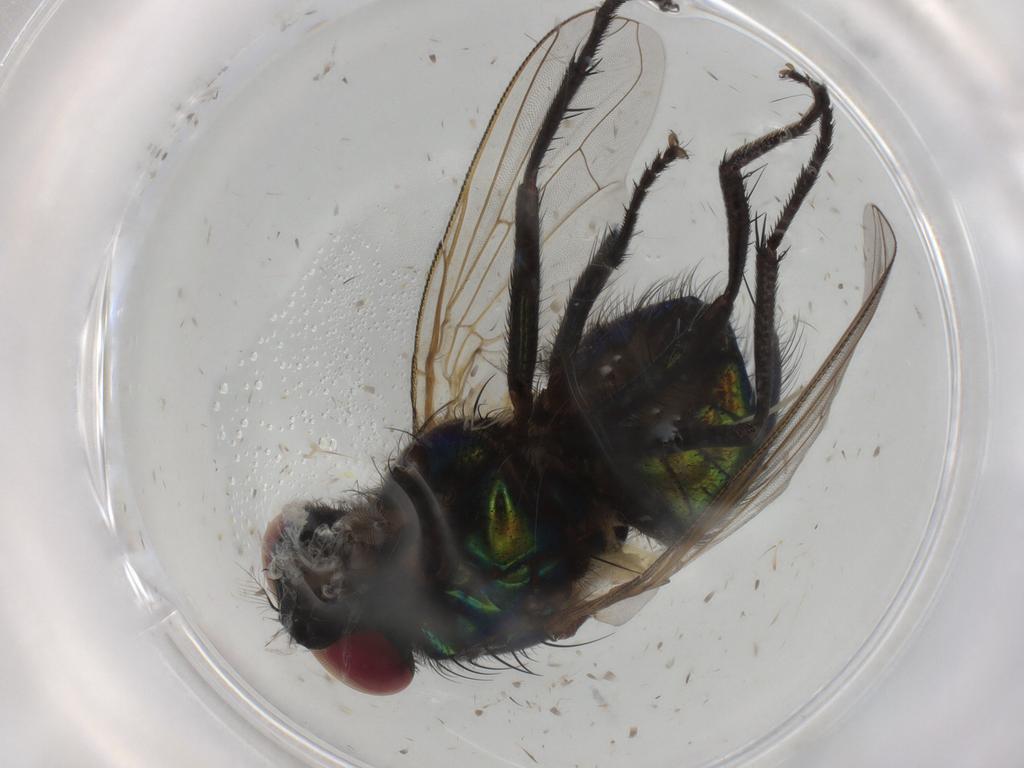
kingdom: Animalia
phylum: Arthropoda
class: Insecta
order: Diptera
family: Muscidae
